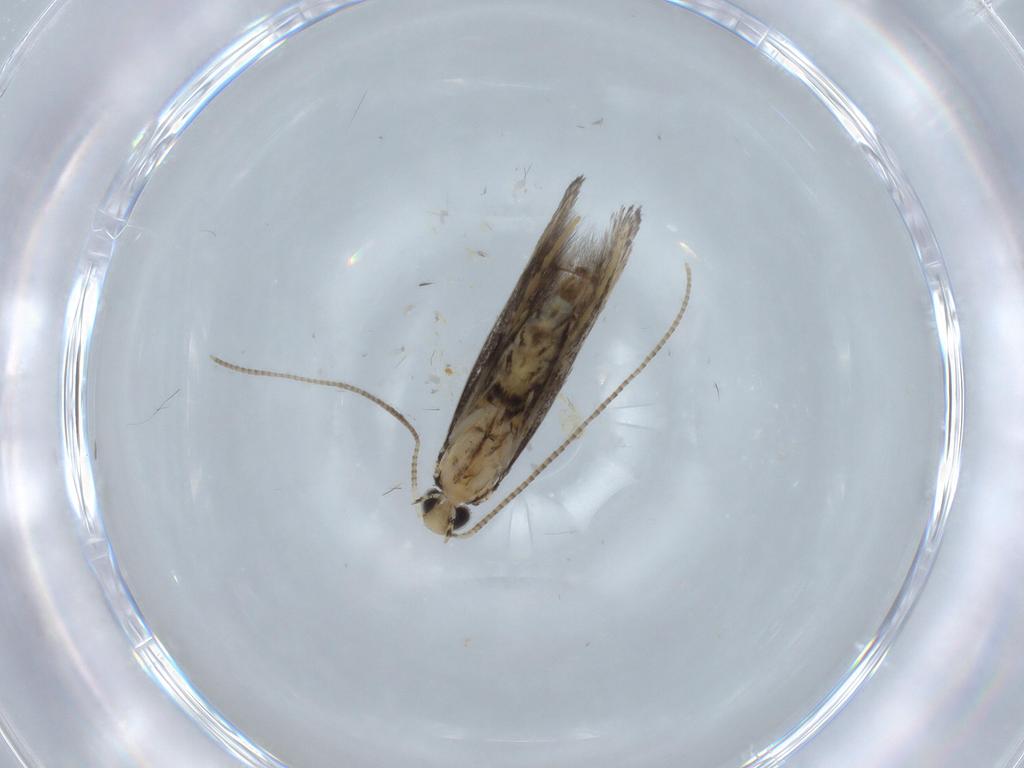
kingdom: Animalia
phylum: Arthropoda
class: Insecta
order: Lepidoptera
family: Gracillariidae
